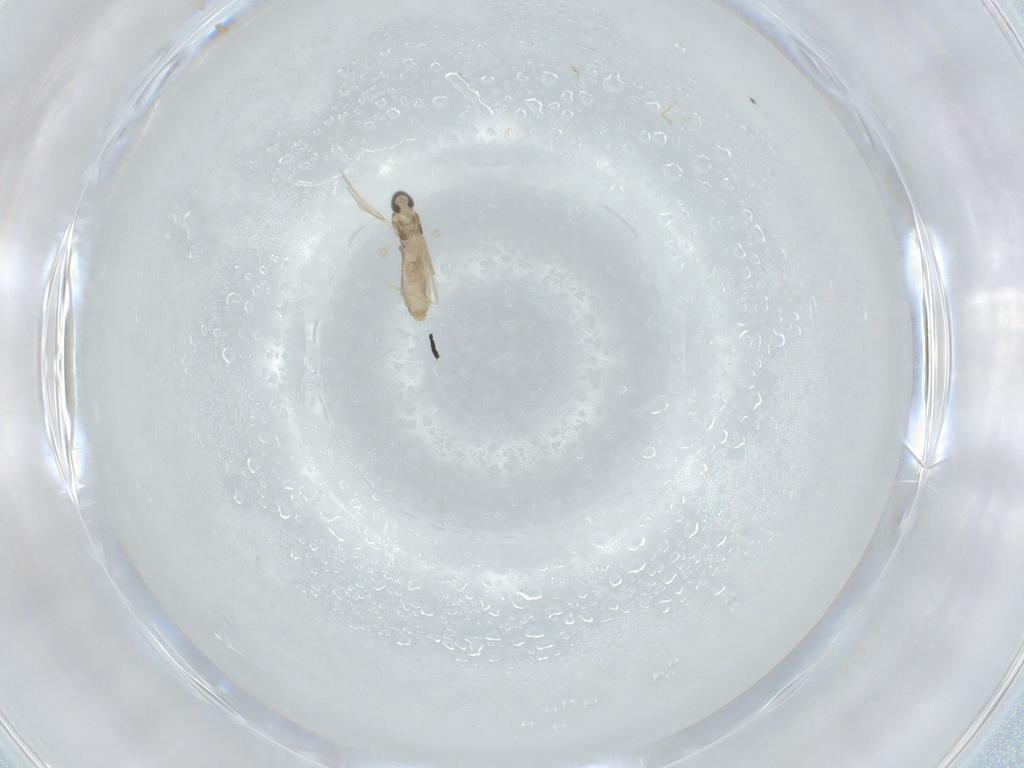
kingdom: Animalia
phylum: Arthropoda
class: Insecta
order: Diptera
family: Cecidomyiidae
